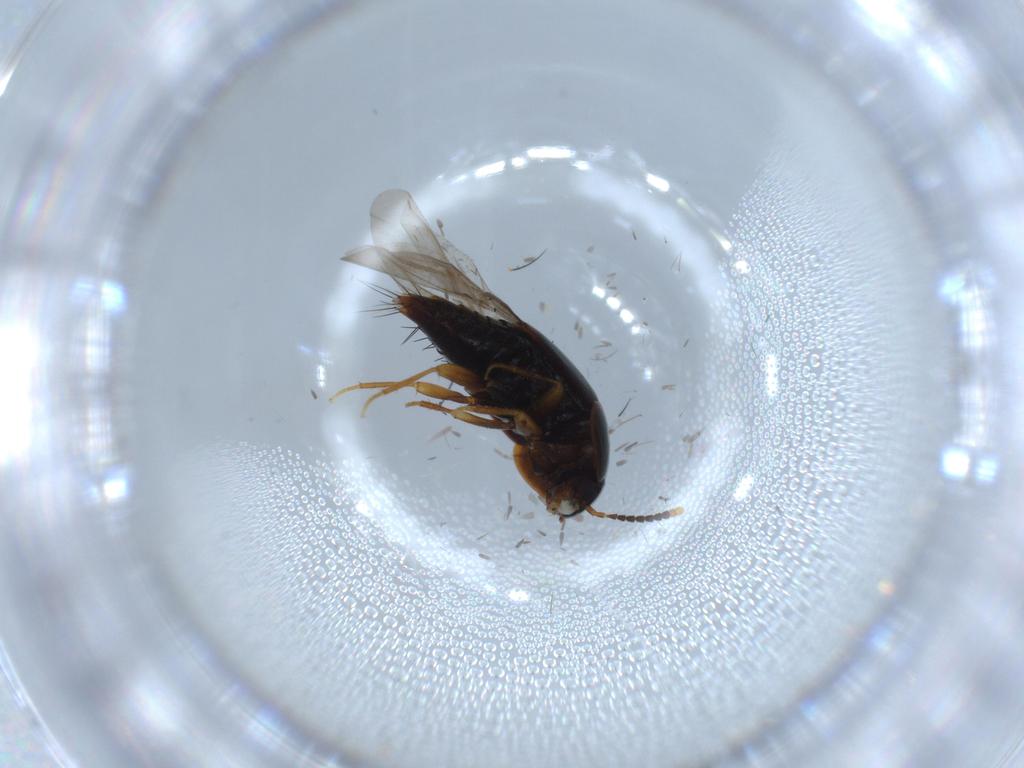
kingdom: Animalia
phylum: Arthropoda
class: Insecta
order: Coleoptera
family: Staphylinidae
